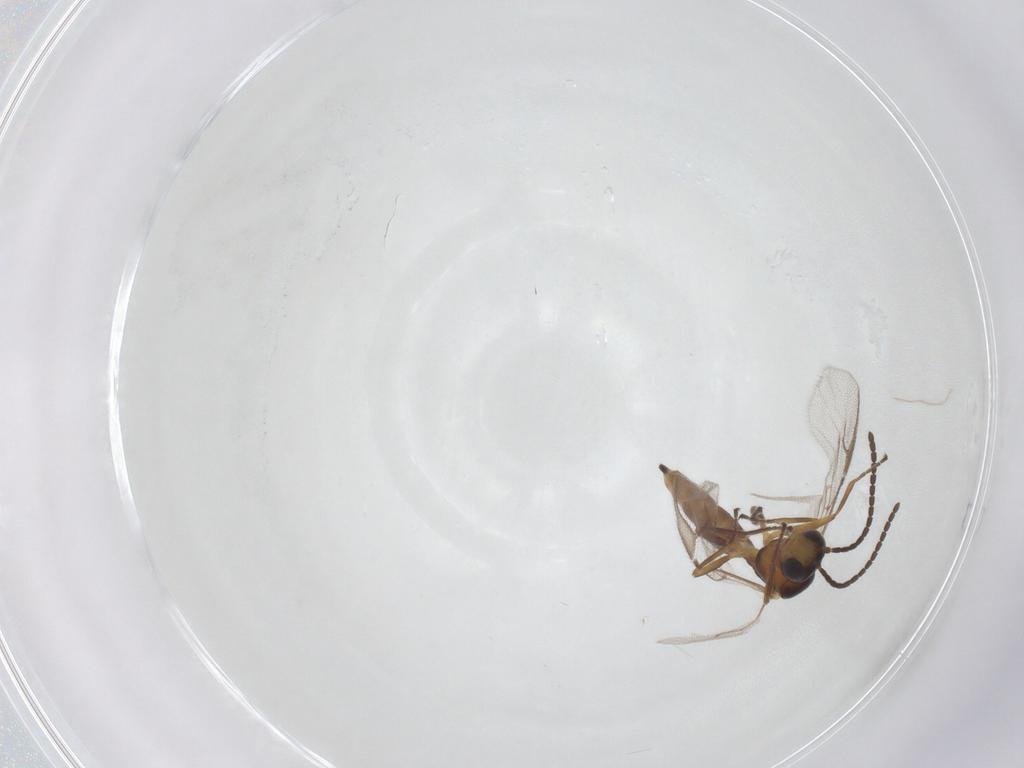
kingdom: Animalia
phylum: Arthropoda
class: Insecta
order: Hymenoptera
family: Braconidae
